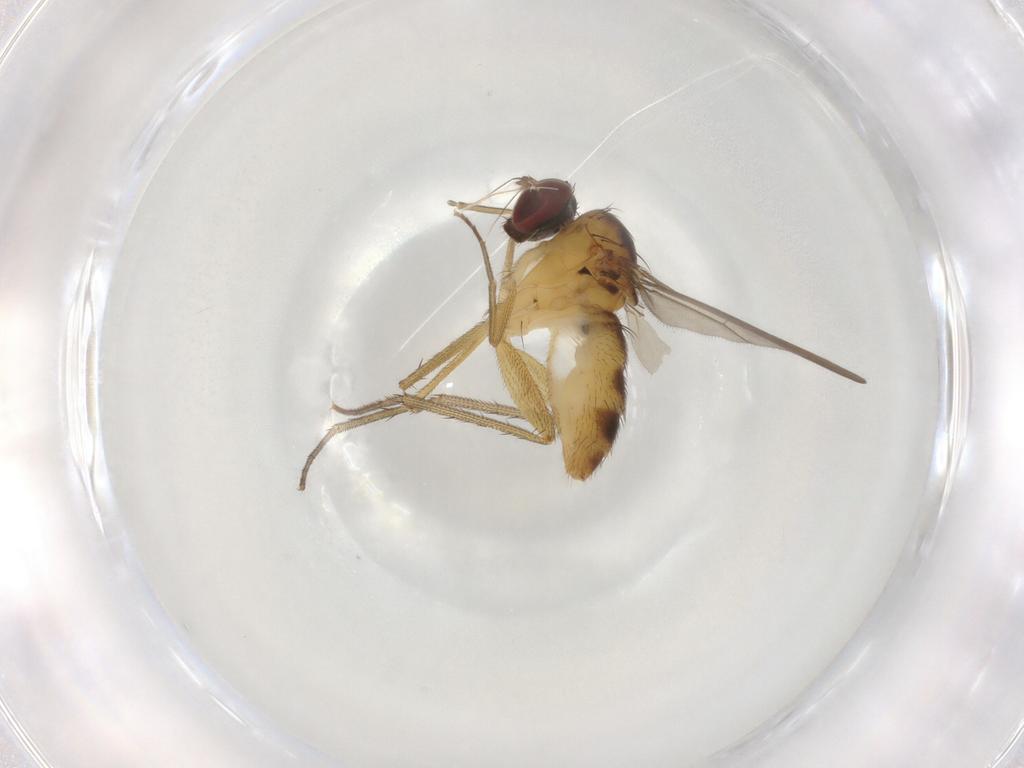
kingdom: Animalia
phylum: Arthropoda
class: Insecta
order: Diptera
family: Dolichopodidae
